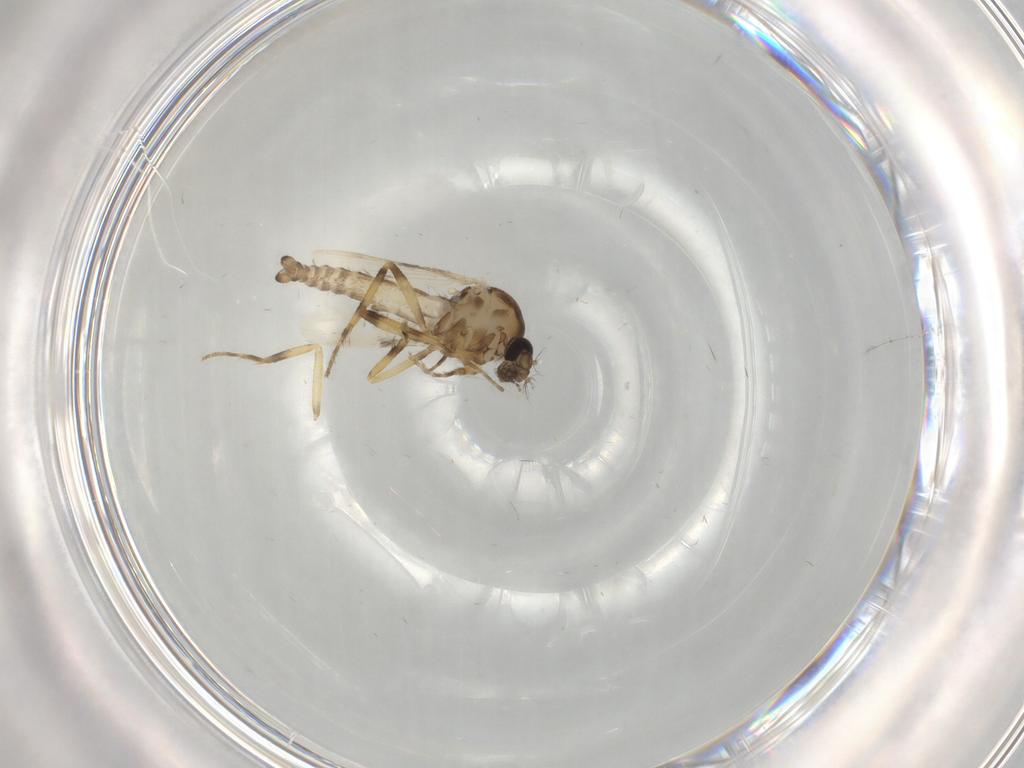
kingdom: Animalia
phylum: Arthropoda
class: Insecta
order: Diptera
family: Ceratopogonidae
